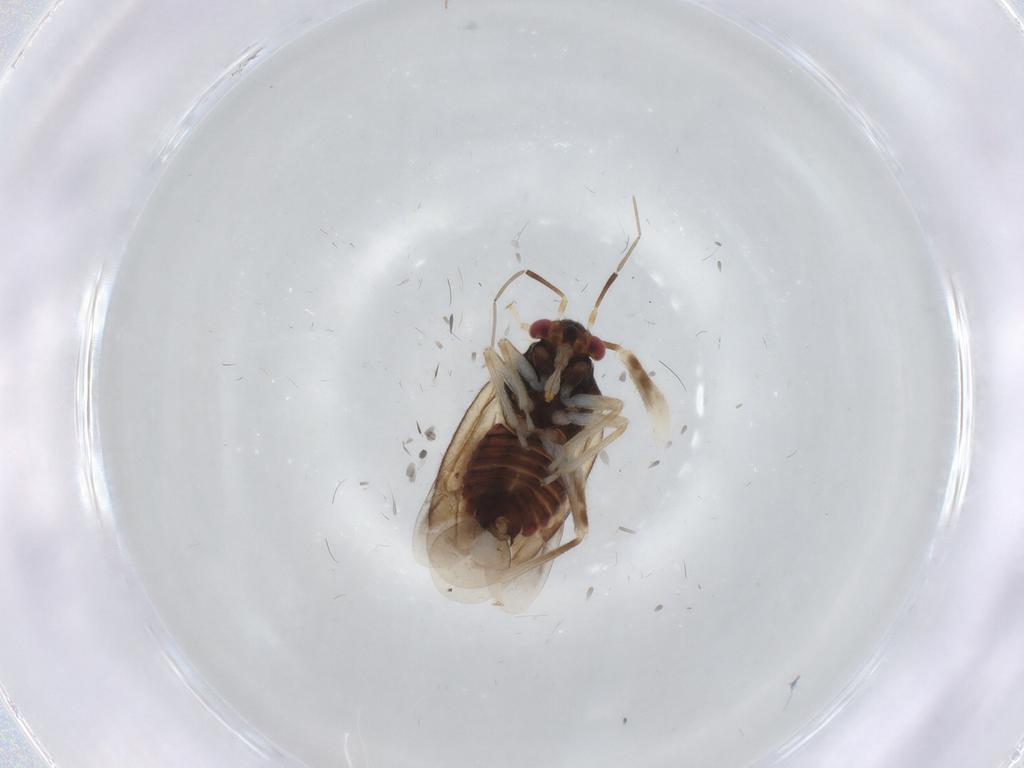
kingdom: Animalia
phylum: Arthropoda
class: Insecta
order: Hemiptera
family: Miridae
